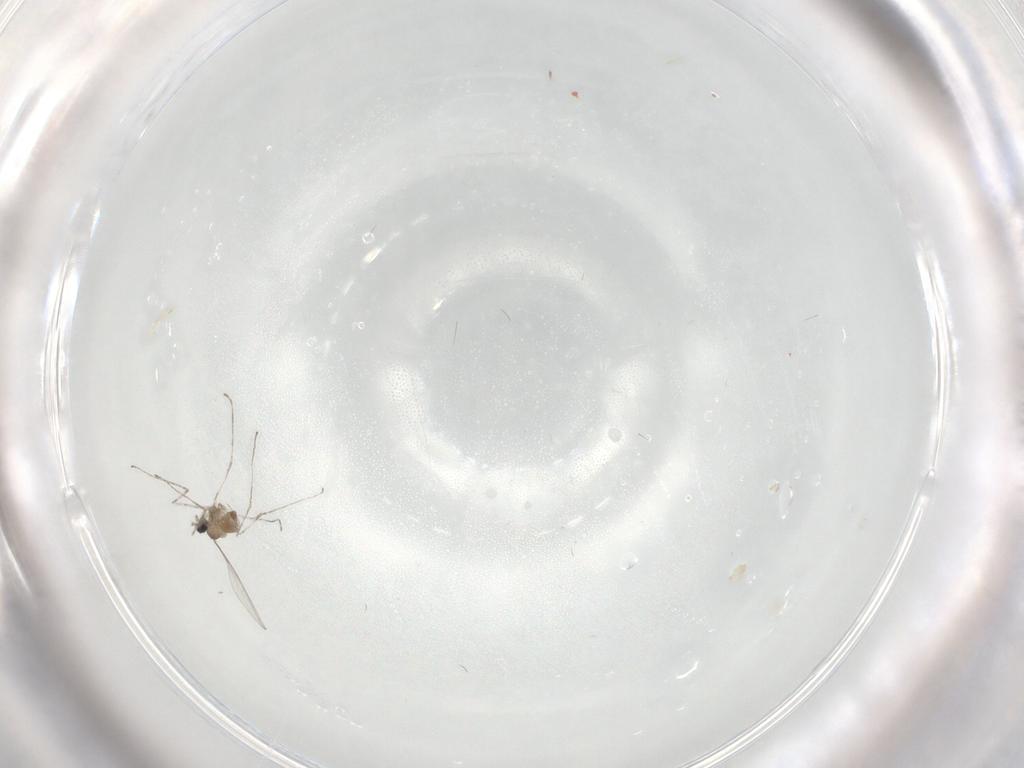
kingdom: Animalia
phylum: Arthropoda
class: Insecta
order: Diptera
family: Cecidomyiidae
